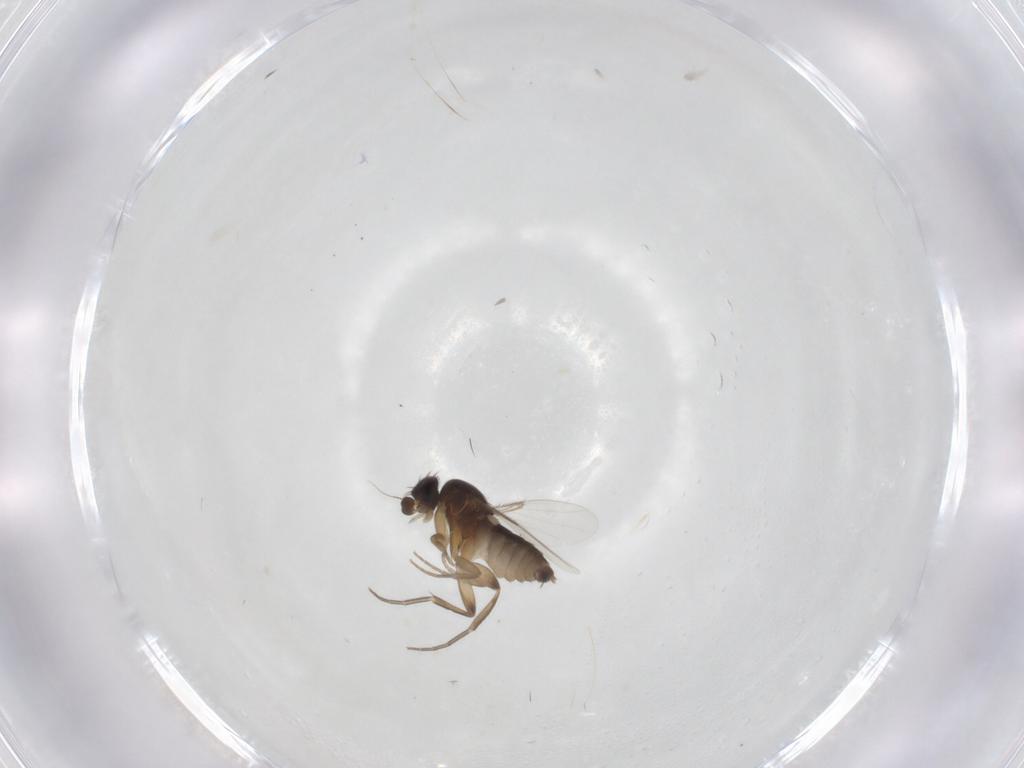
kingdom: Animalia
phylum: Arthropoda
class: Insecta
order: Diptera
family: Phoridae
